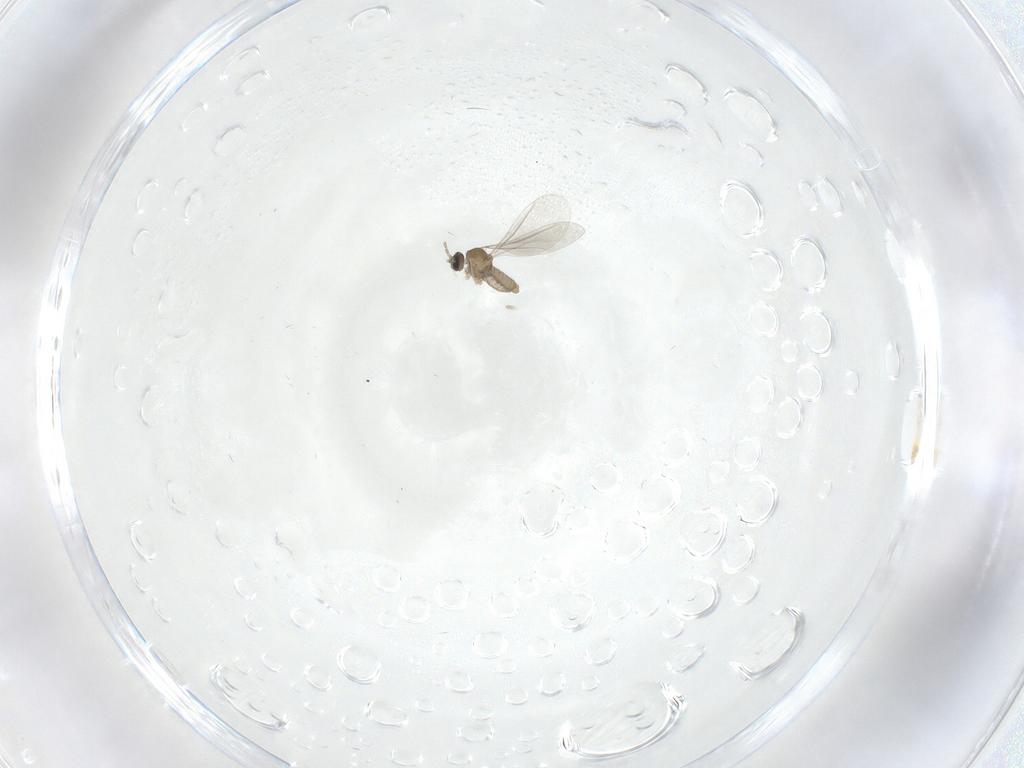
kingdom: Animalia
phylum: Arthropoda
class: Insecta
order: Diptera
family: Cecidomyiidae
